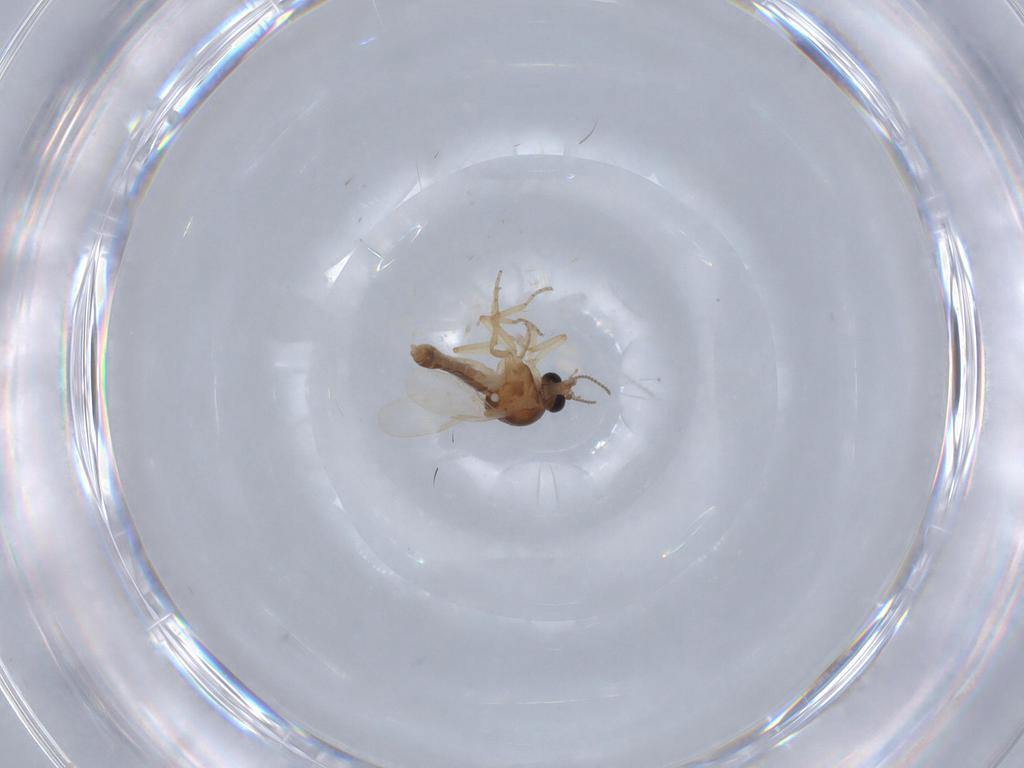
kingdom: Animalia
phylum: Arthropoda
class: Insecta
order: Diptera
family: Ceratopogonidae
